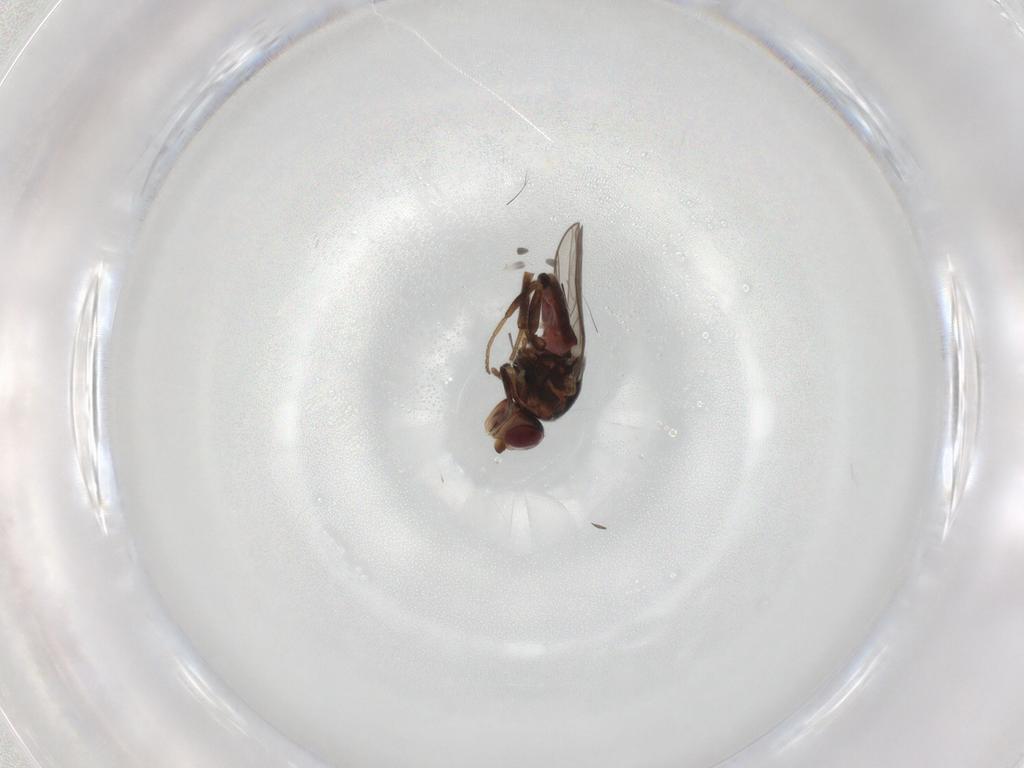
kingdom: Animalia
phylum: Arthropoda
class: Insecta
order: Diptera
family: Chloropidae
